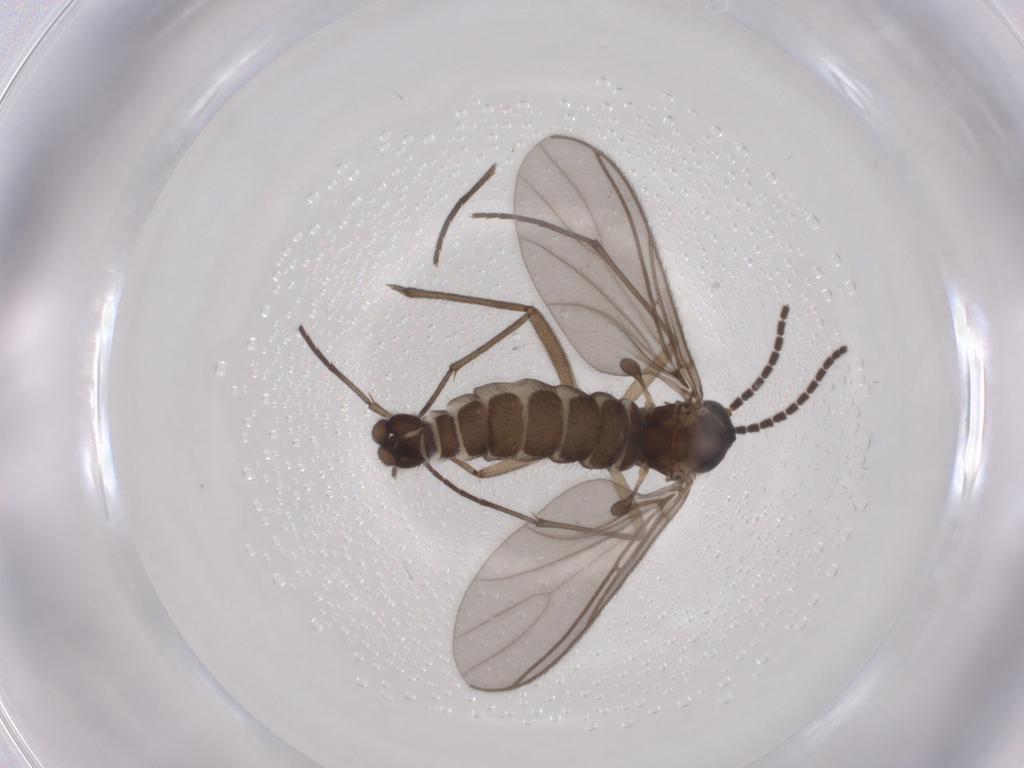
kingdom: Animalia
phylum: Arthropoda
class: Insecta
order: Diptera
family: Sciaridae
